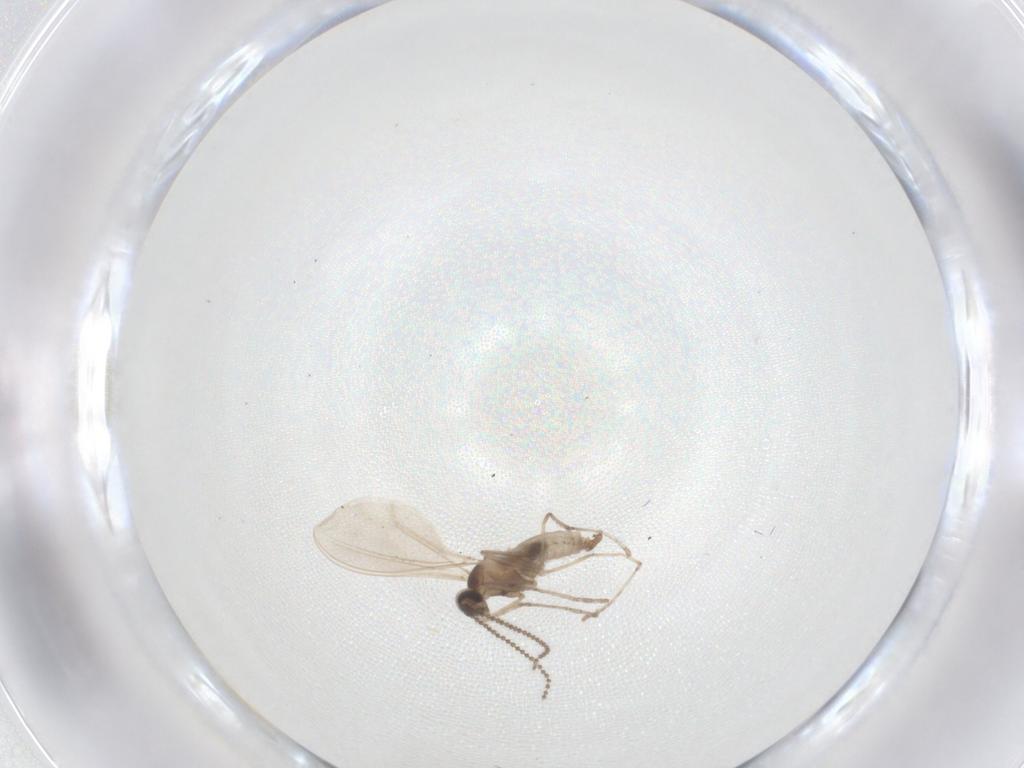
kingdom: Animalia
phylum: Arthropoda
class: Insecta
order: Diptera
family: Cecidomyiidae
